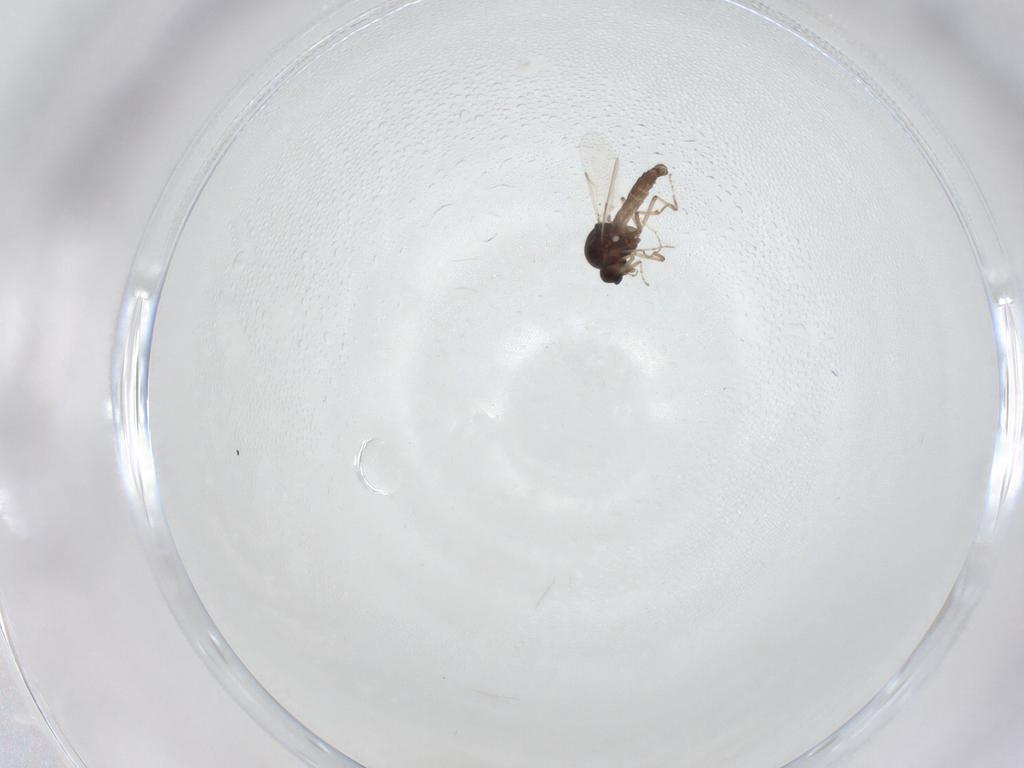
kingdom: Animalia
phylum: Arthropoda
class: Insecta
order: Diptera
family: Ceratopogonidae
